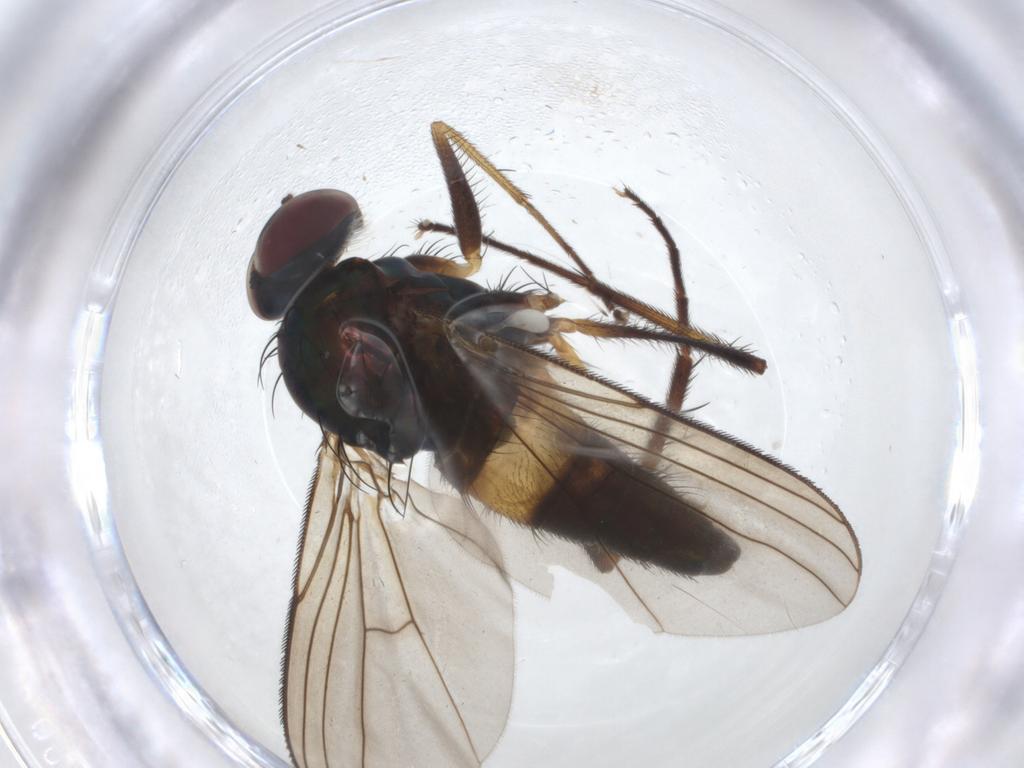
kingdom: Animalia
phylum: Arthropoda
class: Insecta
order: Diptera
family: Dolichopodidae
